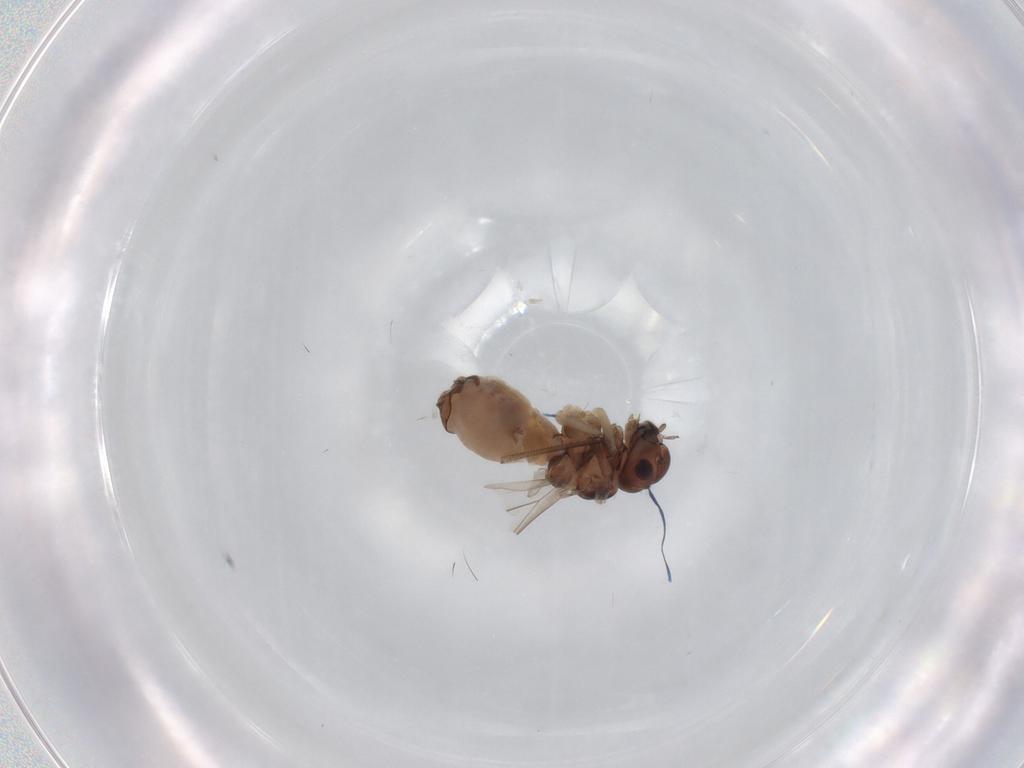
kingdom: Animalia
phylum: Arthropoda
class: Insecta
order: Psocodea
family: Peripsocidae
